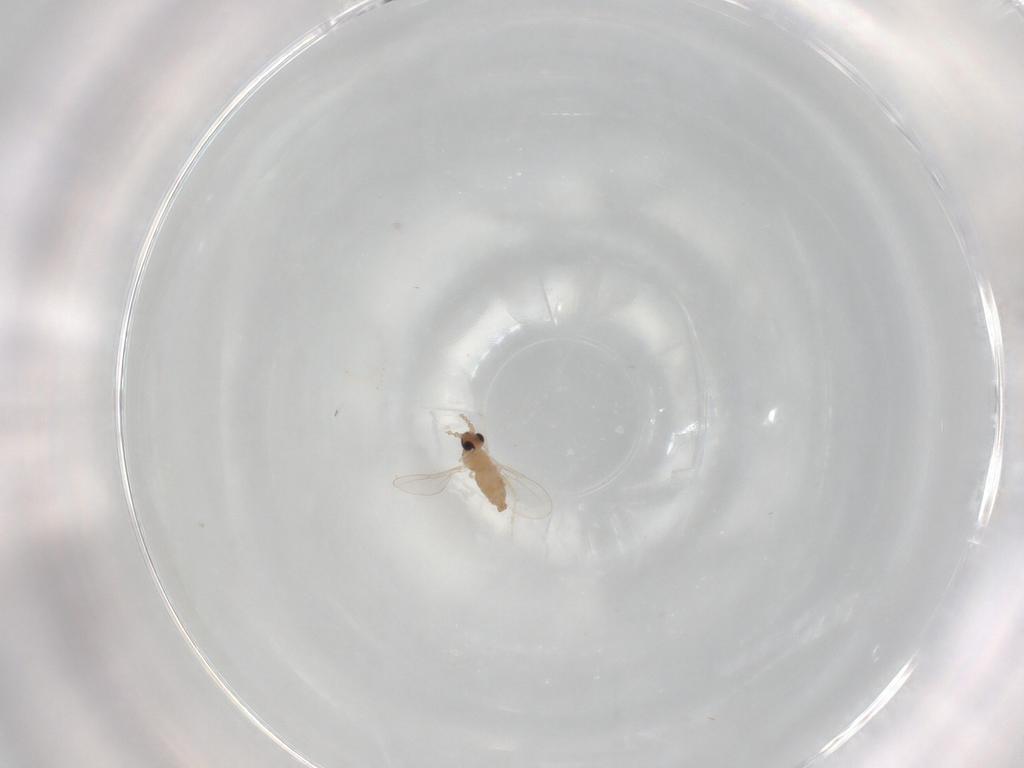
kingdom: Animalia
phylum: Arthropoda
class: Insecta
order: Diptera
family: Cecidomyiidae
